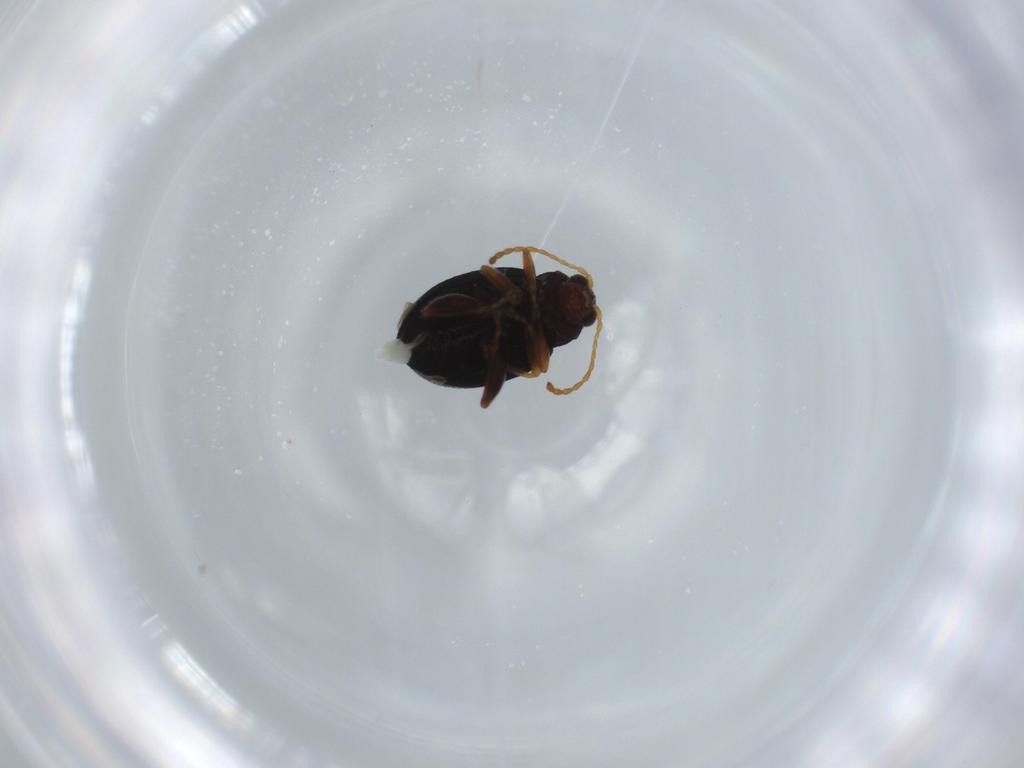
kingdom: Animalia
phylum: Arthropoda
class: Insecta
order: Coleoptera
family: Chrysomelidae
